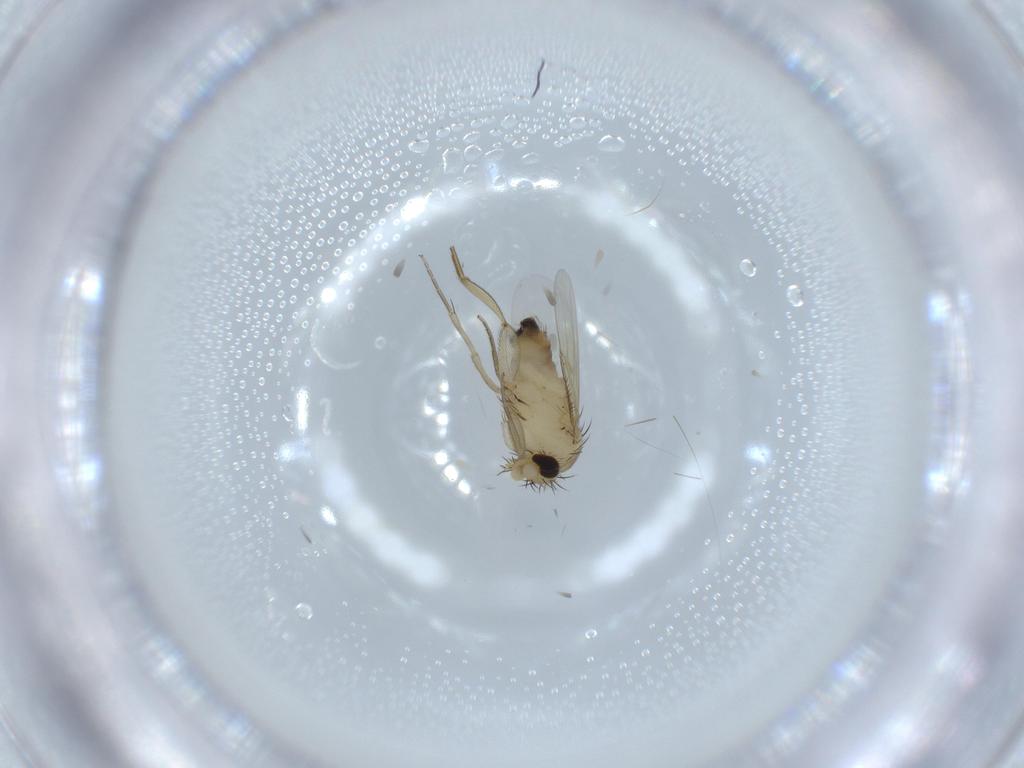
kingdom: Animalia
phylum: Arthropoda
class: Insecta
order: Diptera
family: Phoridae
